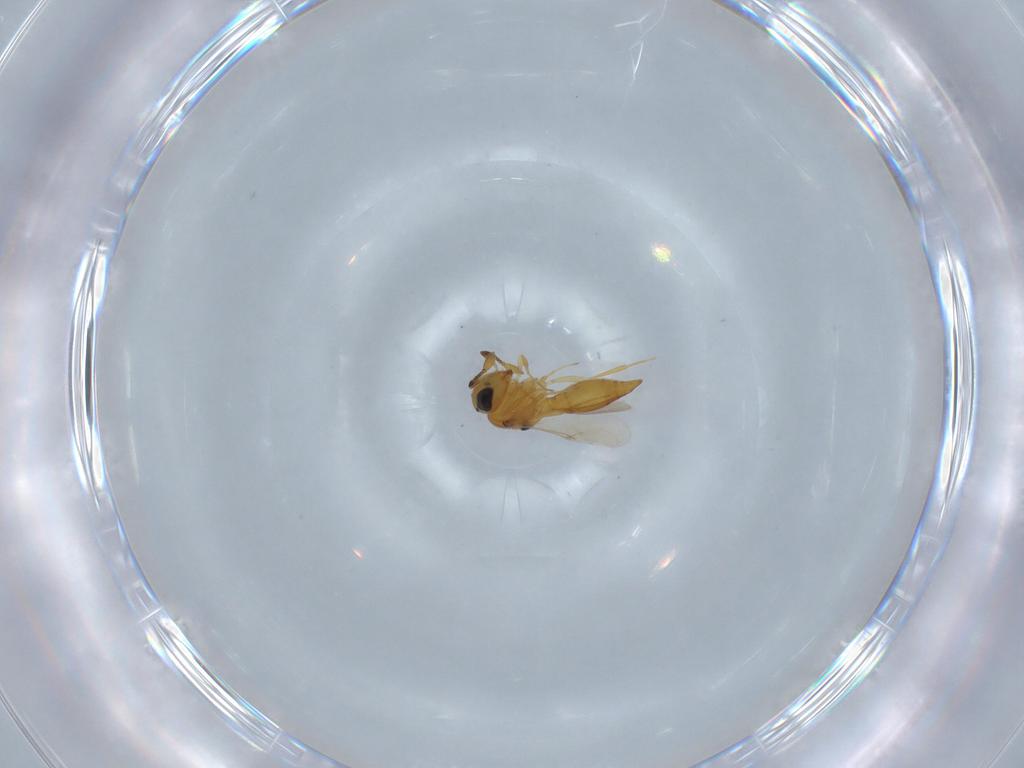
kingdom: Animalia
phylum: Arthropoda
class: Insecta
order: Hymenoptera
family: Scelionidae
